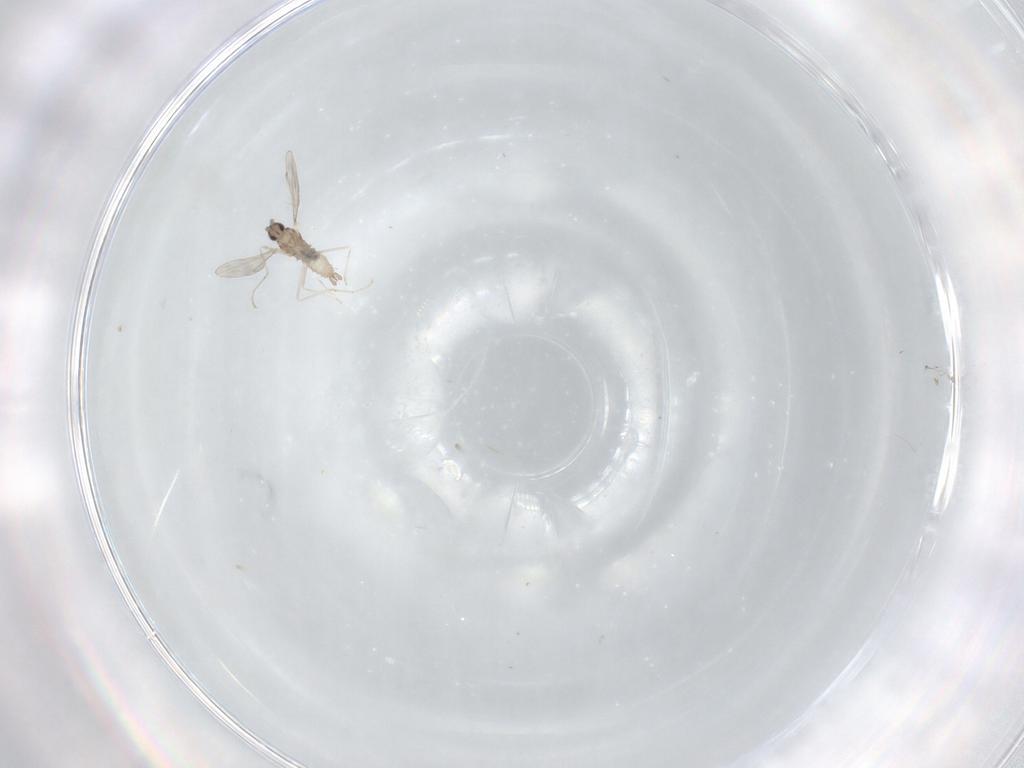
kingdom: Animalia
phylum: Arthropoda
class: Insecta
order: Diptera
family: Cecidomyiidae
